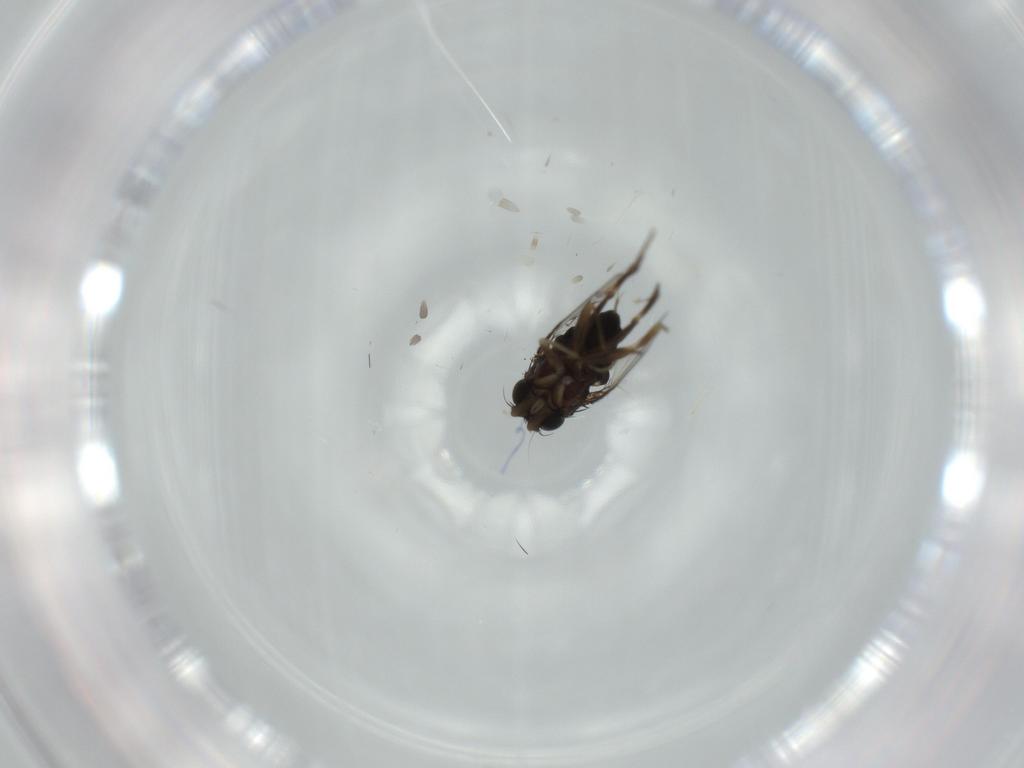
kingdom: Animalia
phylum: Arthropoda
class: Insecta
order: Diptera
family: Phoridae
